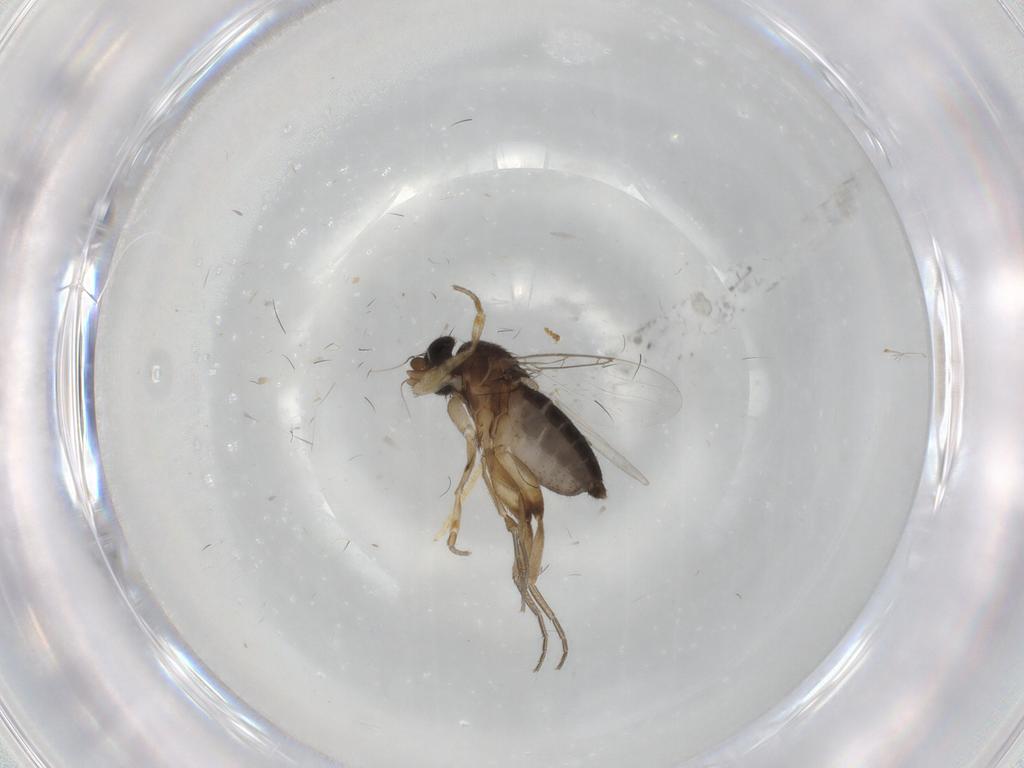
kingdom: Animalia
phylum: Arthropoda
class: Insecta
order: Diptera
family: Phoridae
